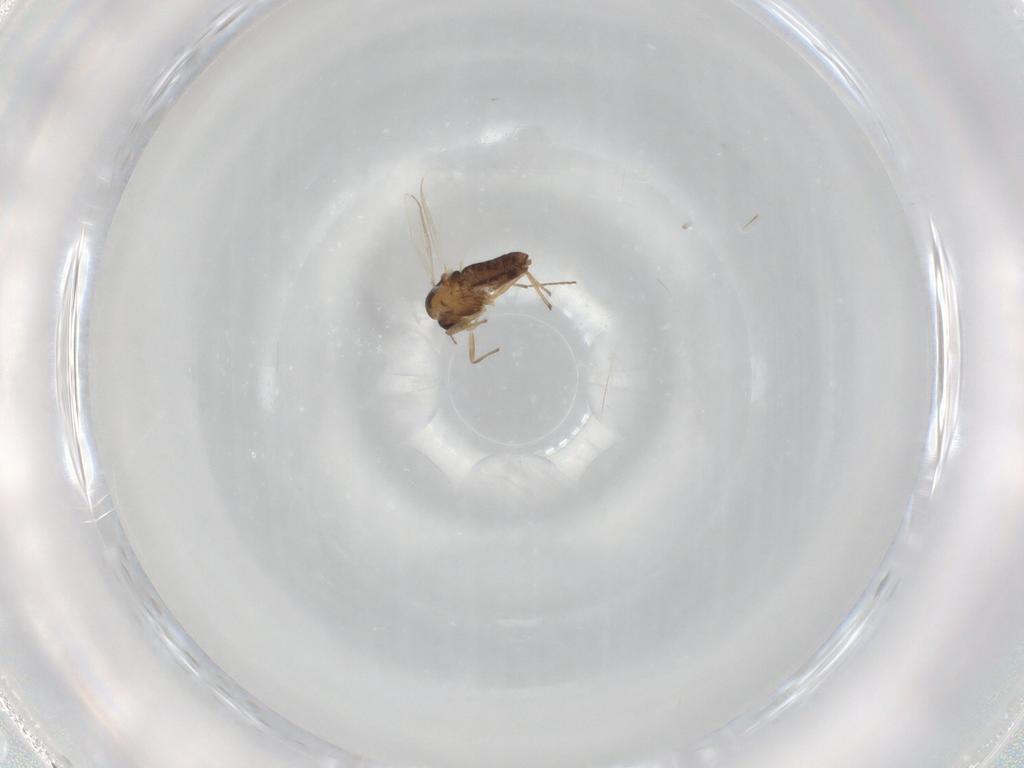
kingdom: Animalia
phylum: Arthropoda
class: Insecta
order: Diptera
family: Chironomidae
